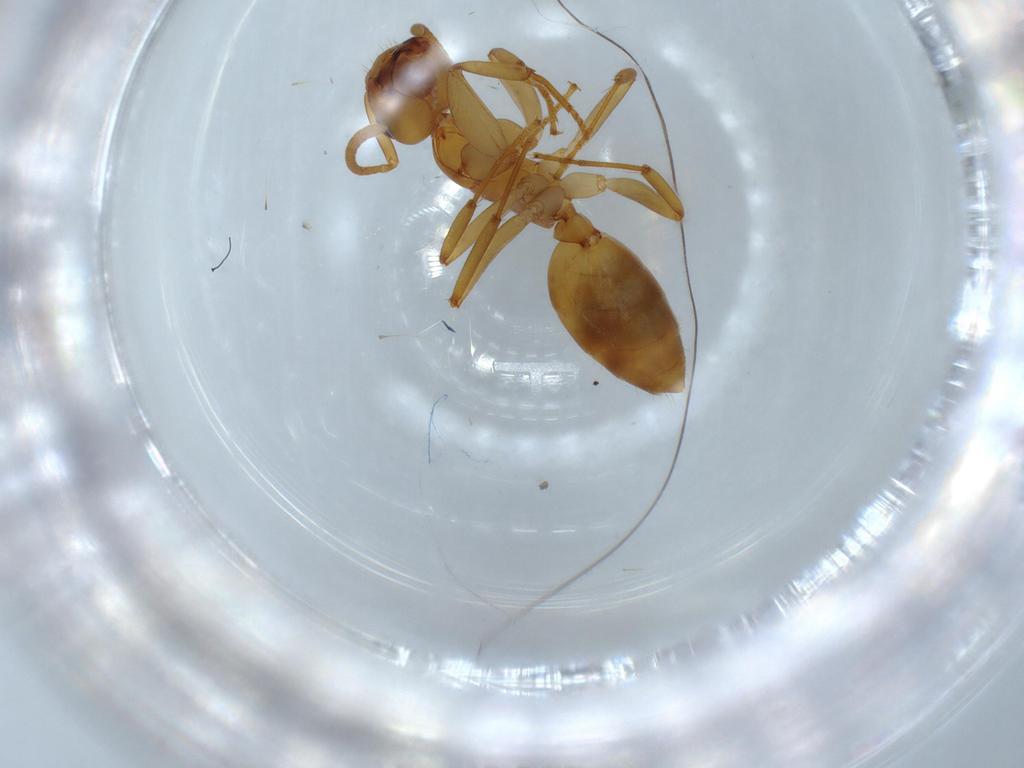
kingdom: Animalia
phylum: Arthropoda
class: Insecta
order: Hymenoptera
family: Formicidae
